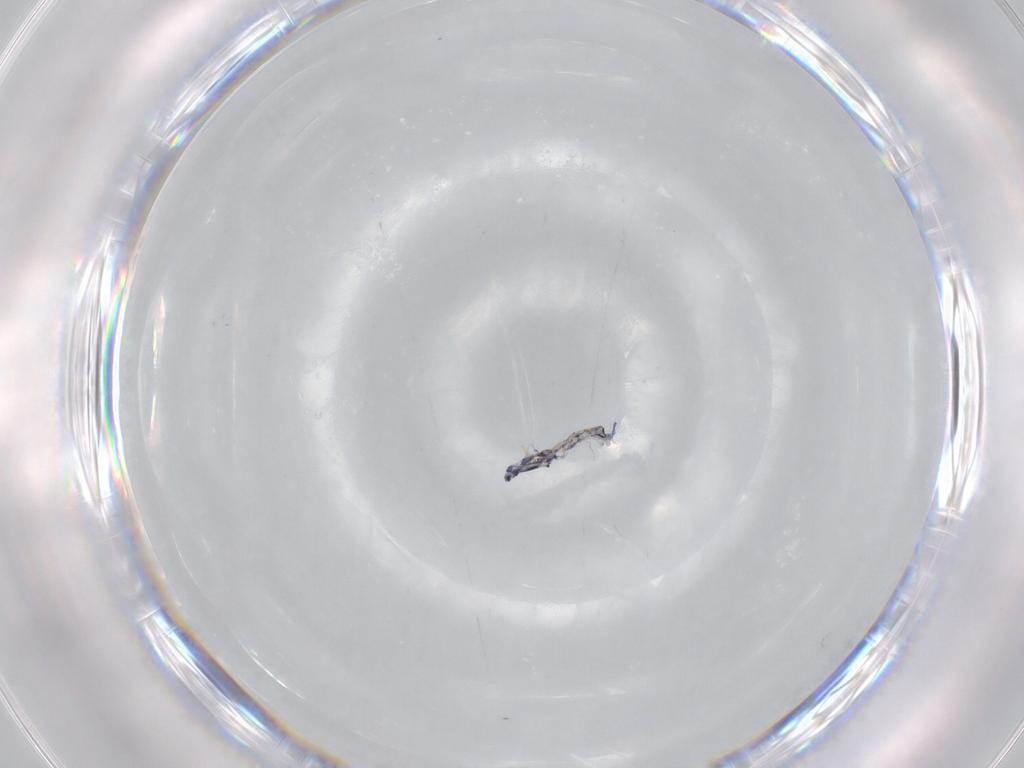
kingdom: Animalia
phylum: Arthropoda
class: Collembola
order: Entomobryomorpha
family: Entomobryidae
